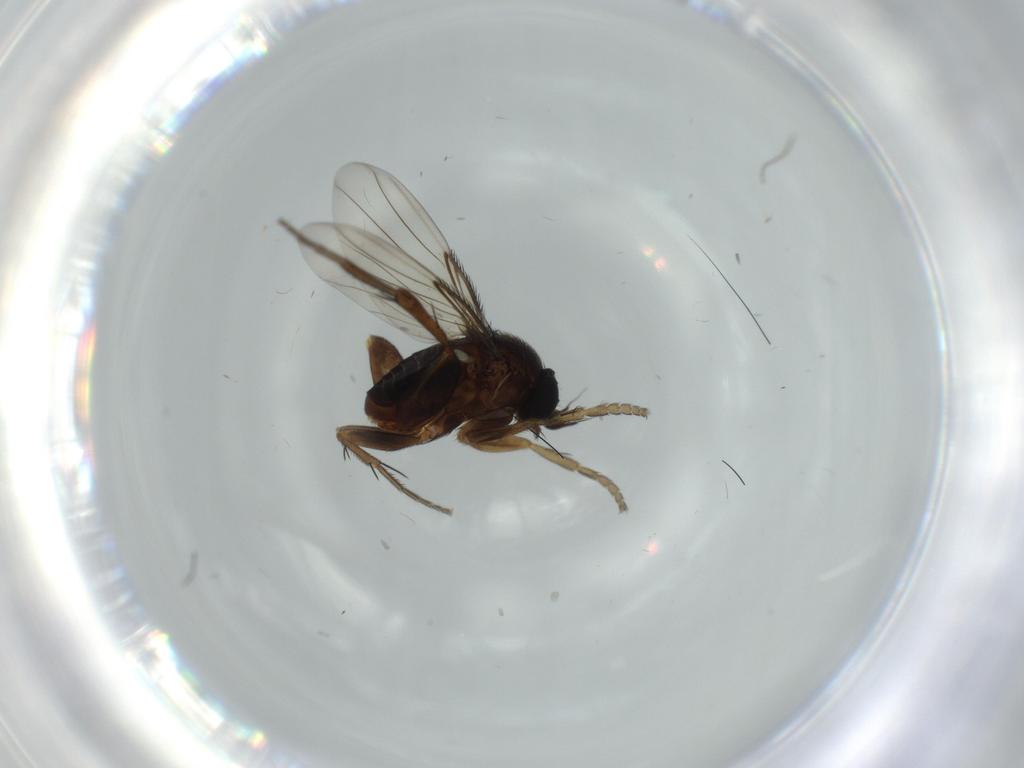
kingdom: Animalia
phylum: Arthropoda
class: Insecta
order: Diptera
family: Phoridae
